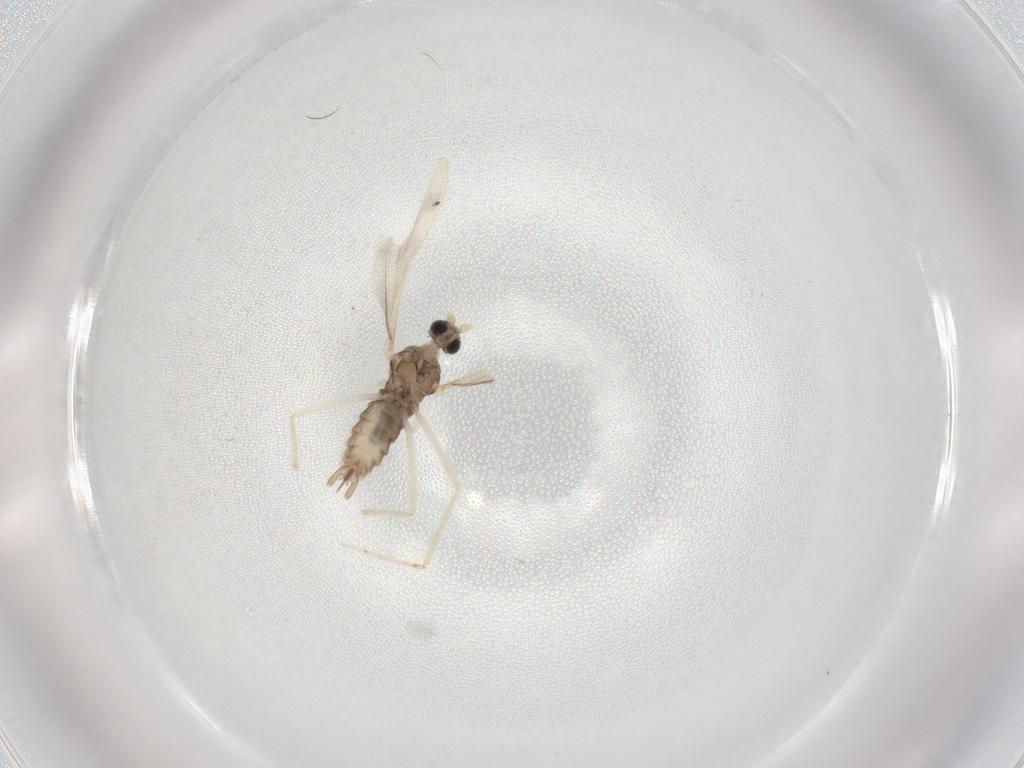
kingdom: Animalia
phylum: Arthropoda
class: Insecta
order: Diptera
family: Cecidomyiidae
